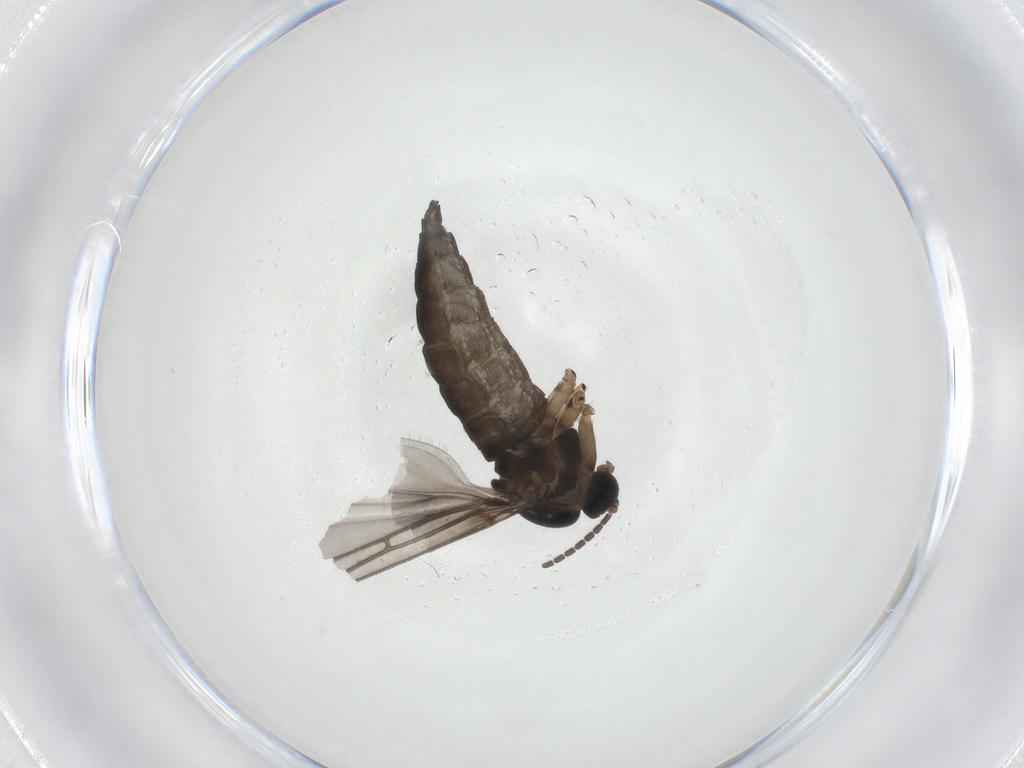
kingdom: Animalia
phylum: Arthropoda
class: Insecta
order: Diptera
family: Sciaridae
